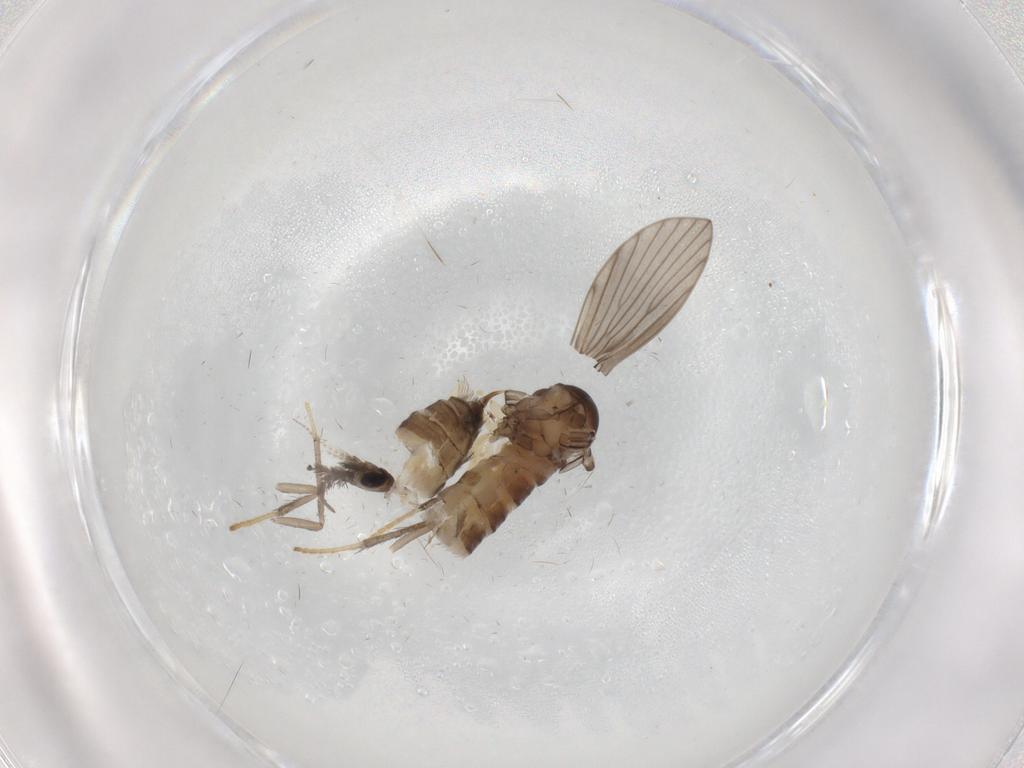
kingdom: Animalia
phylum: Arthropoda
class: Insecta
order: Diptera
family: Psychodidae
